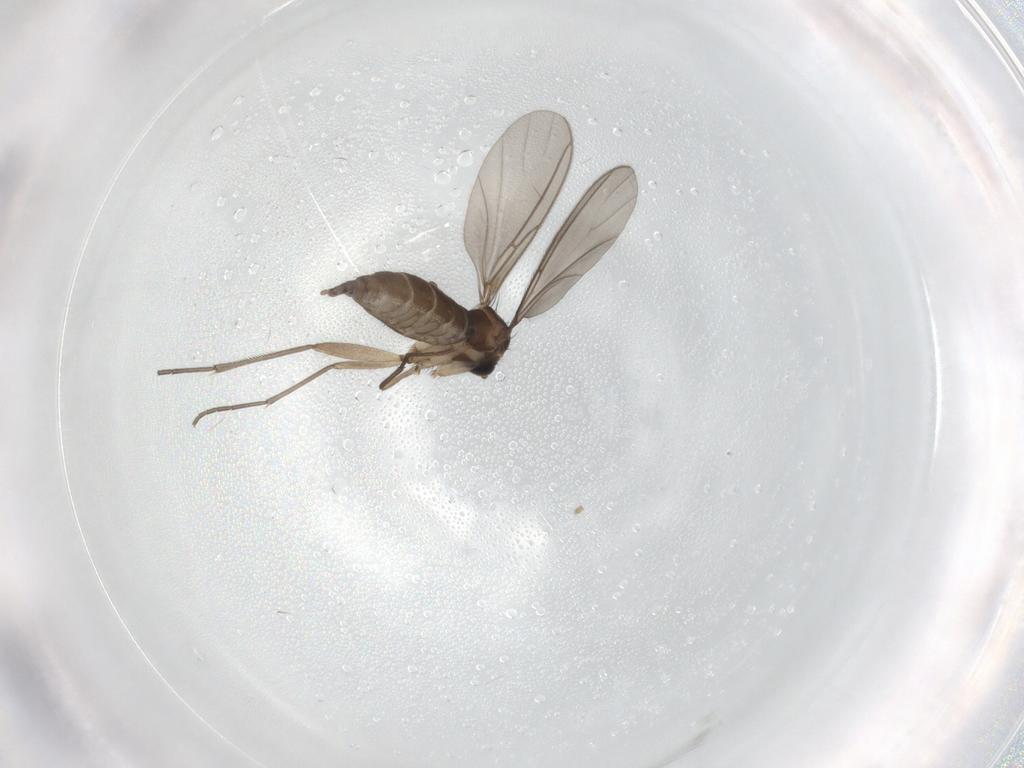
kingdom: Animalia
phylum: Arthropoda
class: Insecta
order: Diptera
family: Sciaridae
